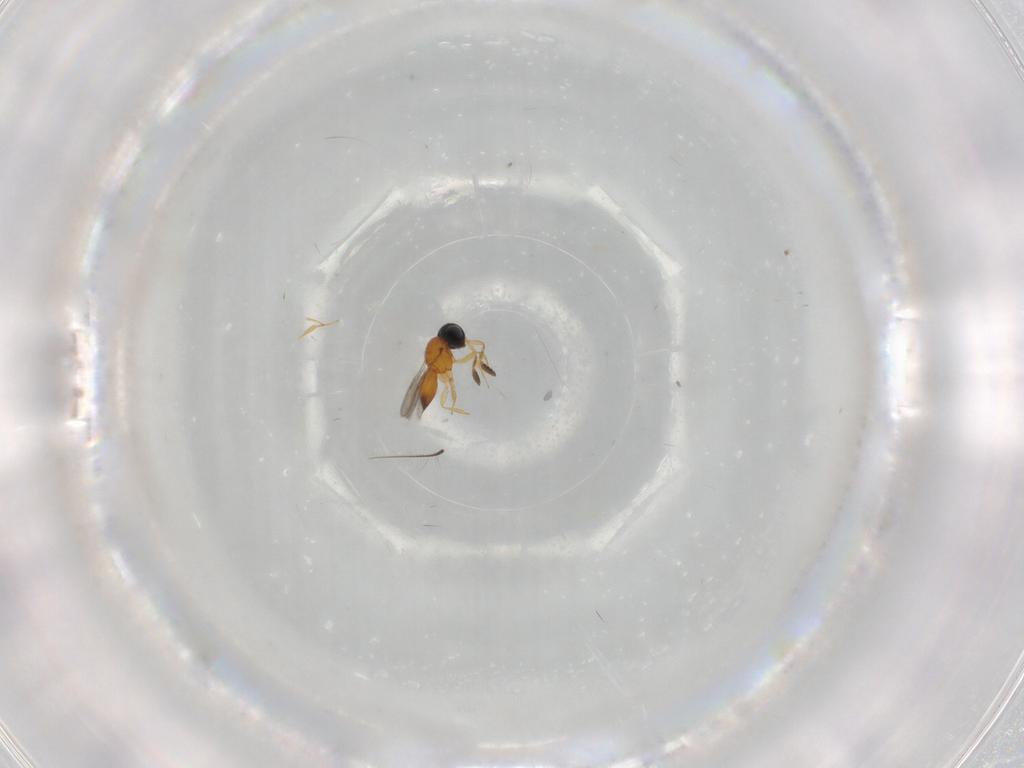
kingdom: Animalia
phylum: Arthropoda
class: Insecta
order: Hymenoptera
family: Scelionidae
